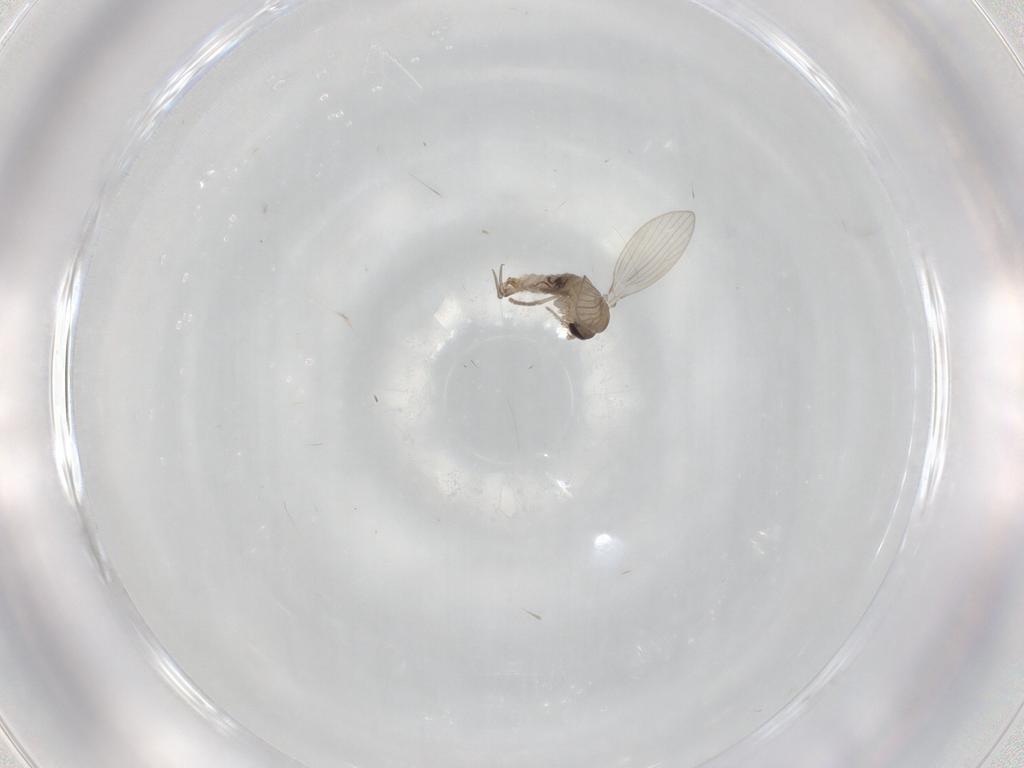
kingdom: Animalia
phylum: Arthropoda
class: Insecta
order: Diptera
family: Psychodidae
